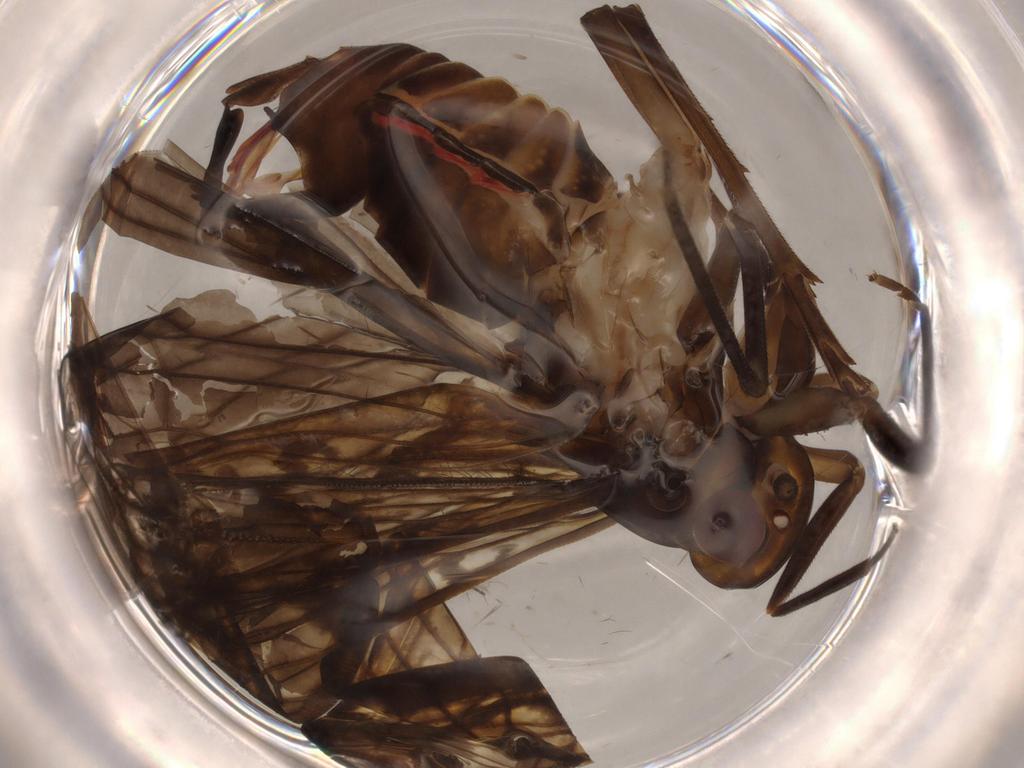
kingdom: Animalia
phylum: Arthropoda
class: Insecta
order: Hemiptera
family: Cixiidae
